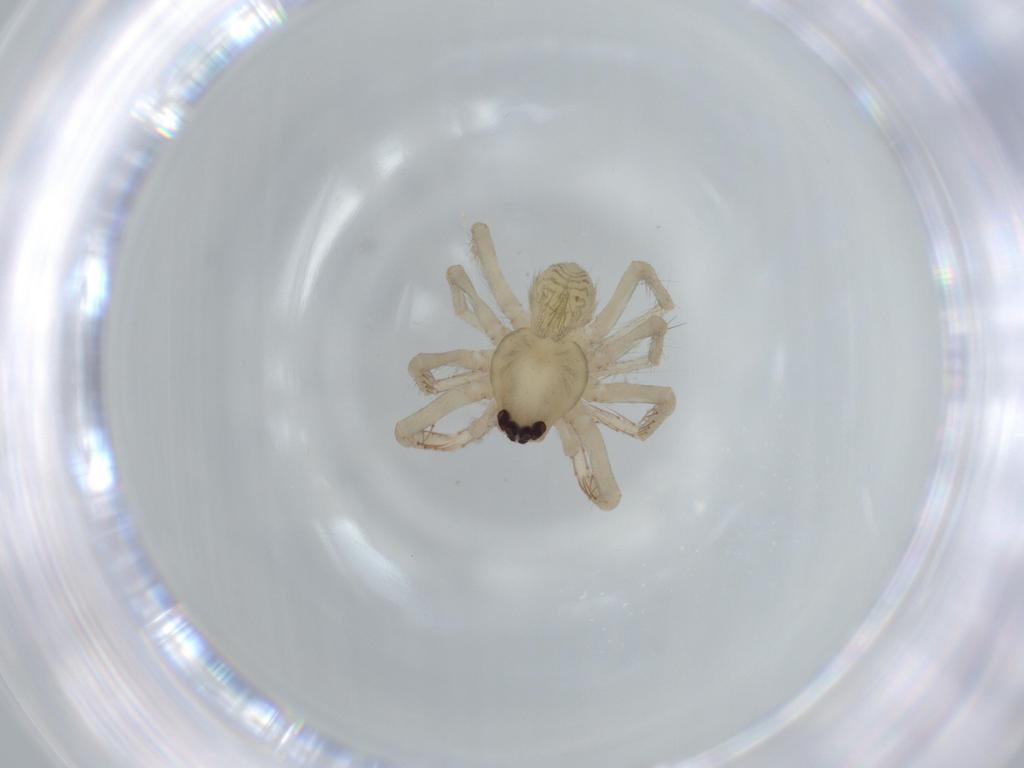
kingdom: Animalia
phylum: Arthropoda
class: Arachnida
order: Araneae
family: Ctenidae
